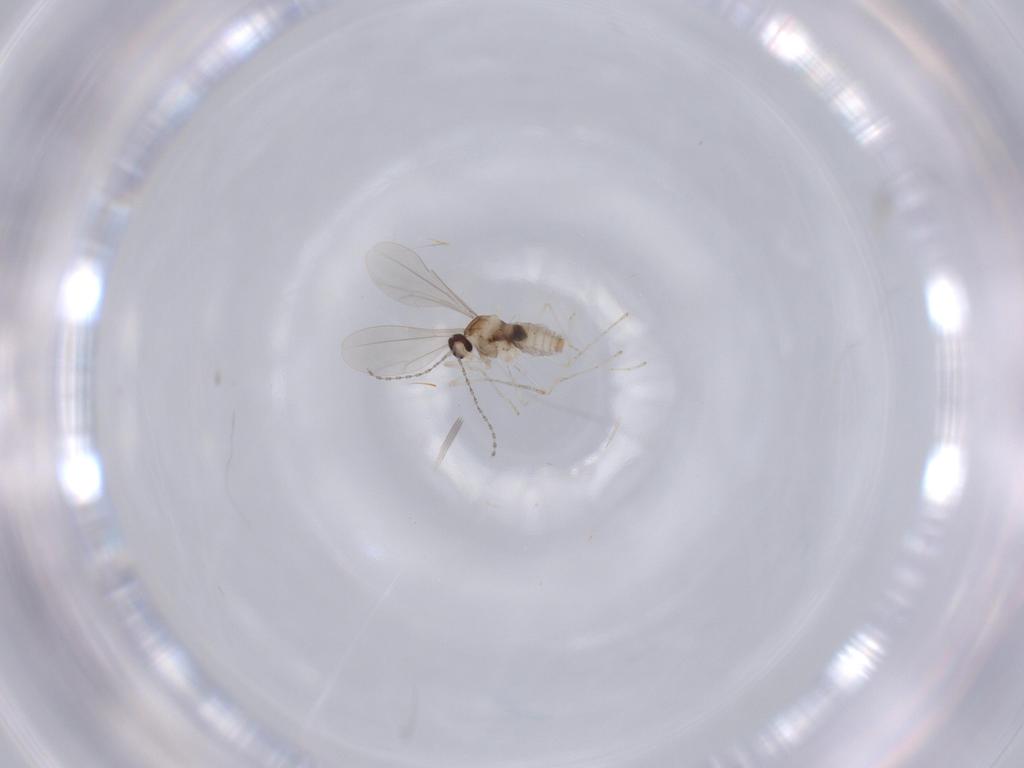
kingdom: Animalia
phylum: Arthropoda
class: Insecta
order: Diptera
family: Cecidomyiidae
